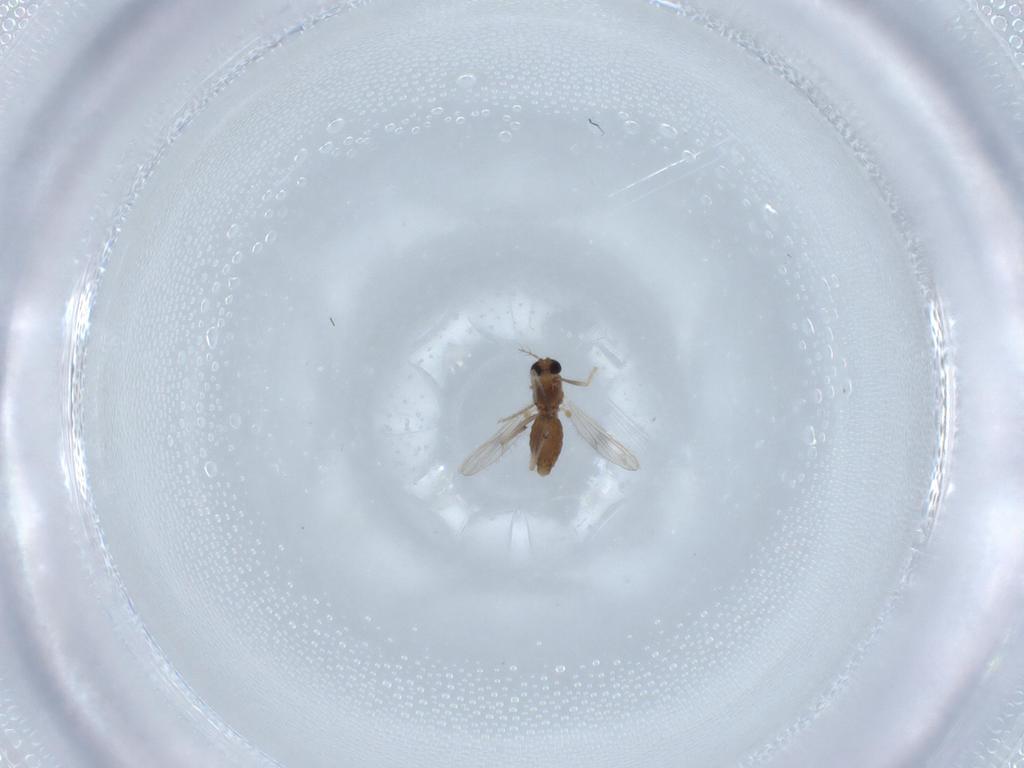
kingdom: Animalia
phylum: Arthropoda
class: Insecta
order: Diptera
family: Chironomidae
